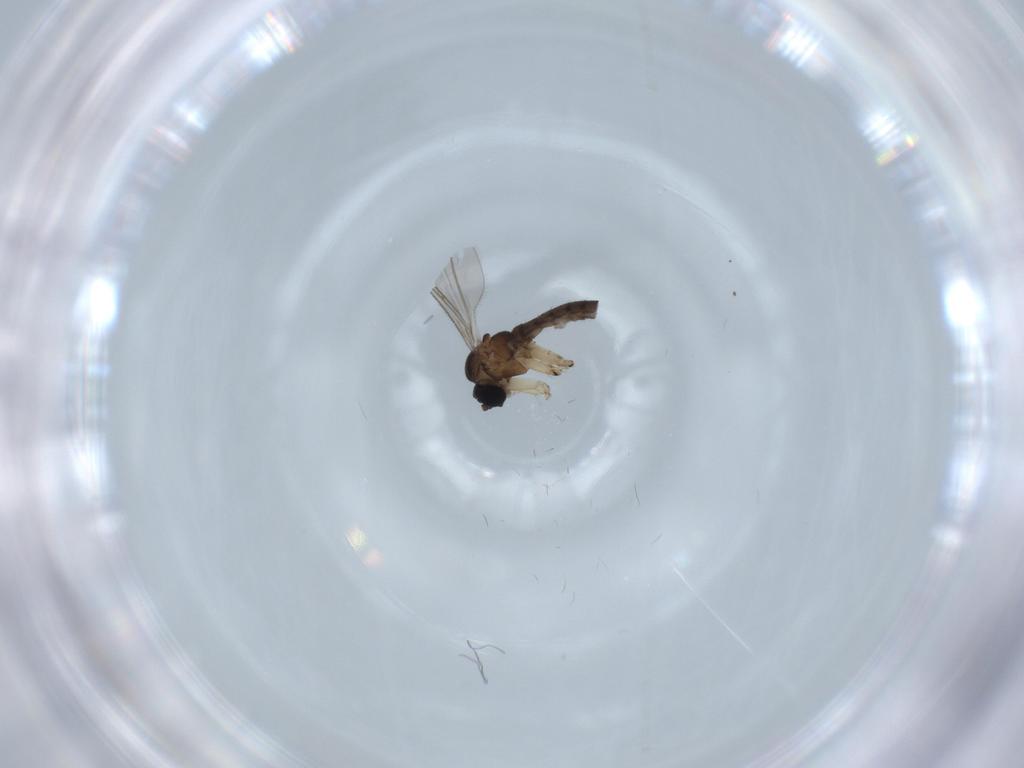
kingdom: Animalia
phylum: Arthropoda
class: Insecta
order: Diptera
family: Sciaridae
